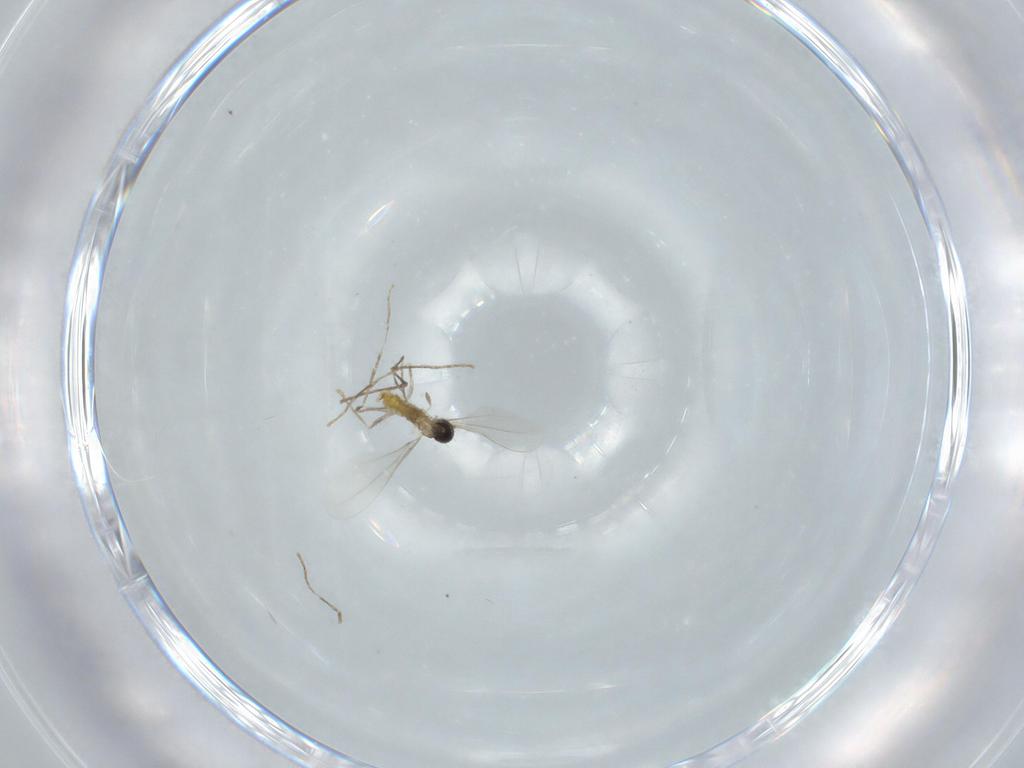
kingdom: Animalia
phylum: Arthropoda
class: Insecta
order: Diptera
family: Cecidomyiidae
